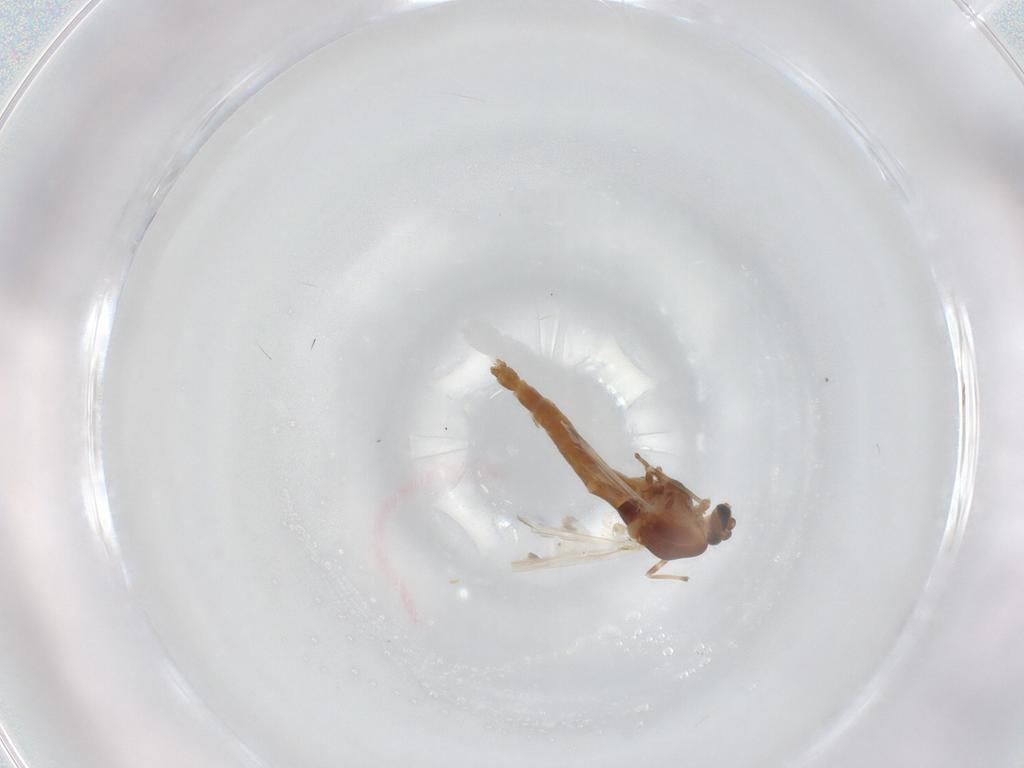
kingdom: Animalia
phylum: Arthropoda
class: Insecta
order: Diptera
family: Chironomidae
